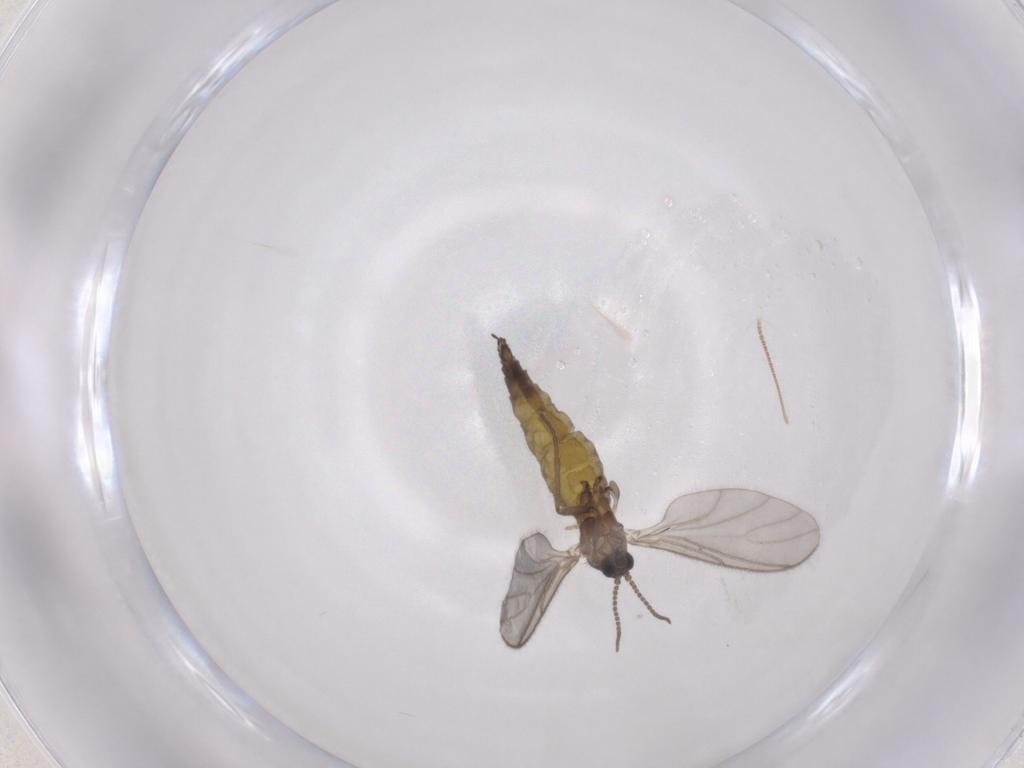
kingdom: Animalia
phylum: Arthropoda
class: Insecta
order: Diptera
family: Sciaridae
